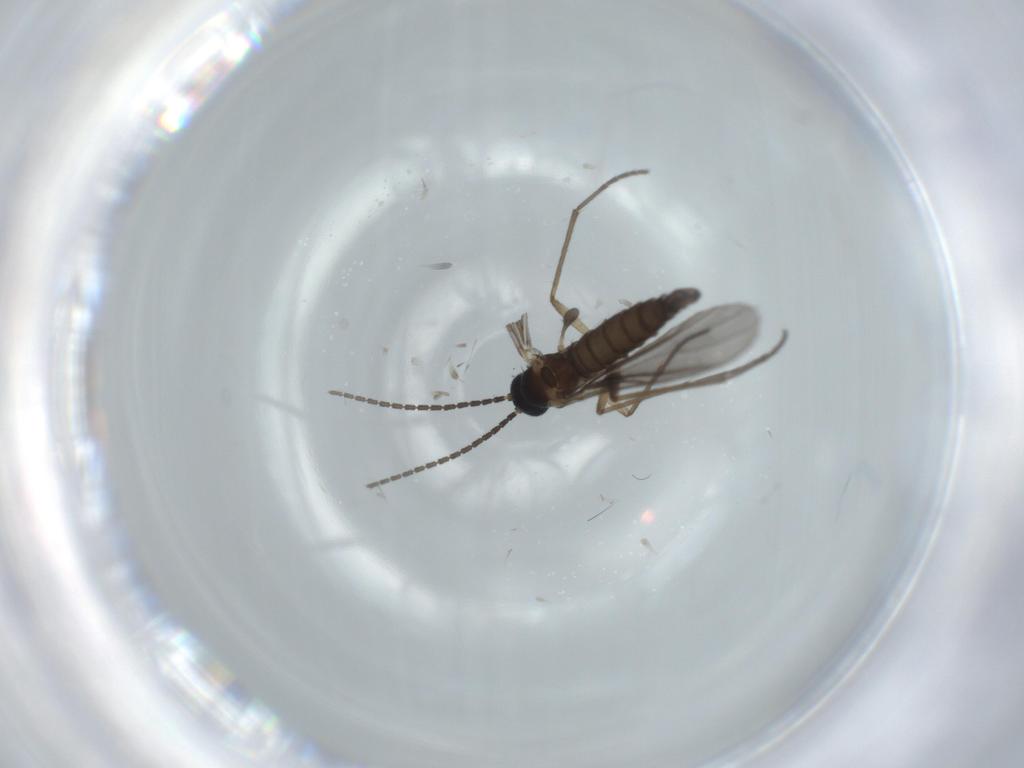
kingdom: Animalia
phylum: Arthropoda
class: Insecta
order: Diptera
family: Sciaridae
